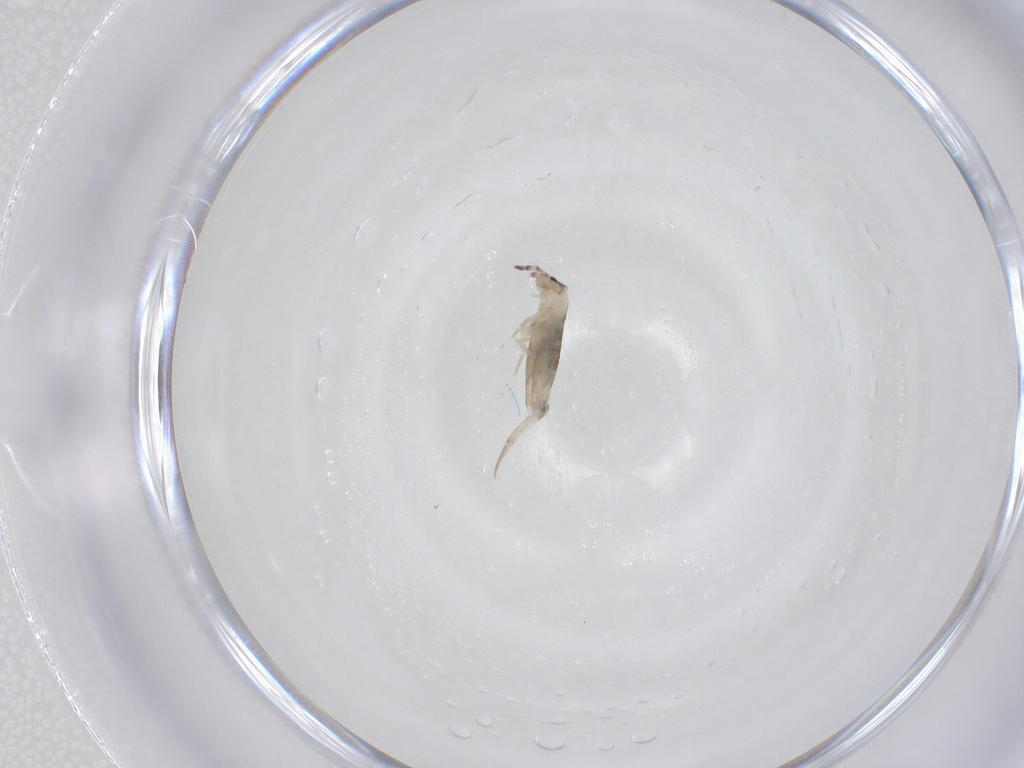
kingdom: Animalia
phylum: Arthropoda
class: Collembola
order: Entomobryomorpha
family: Entomobryidae
